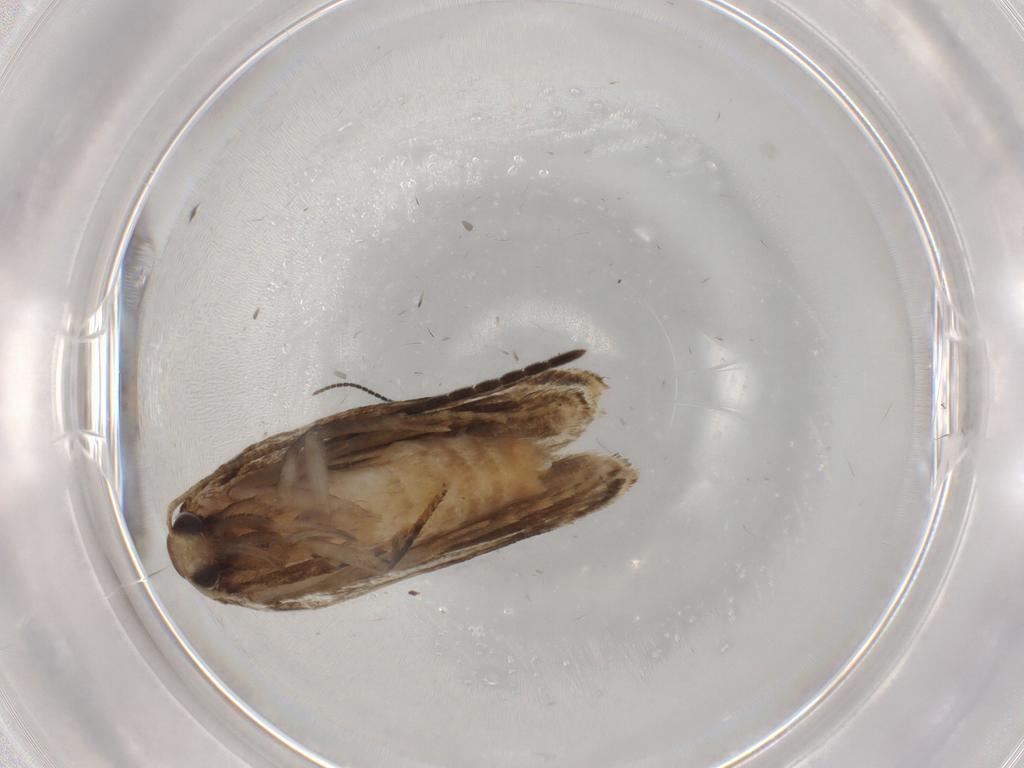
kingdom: Animalia
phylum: Arthropoda
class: Insecta
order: Lepidoptera
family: Gelechiidae
